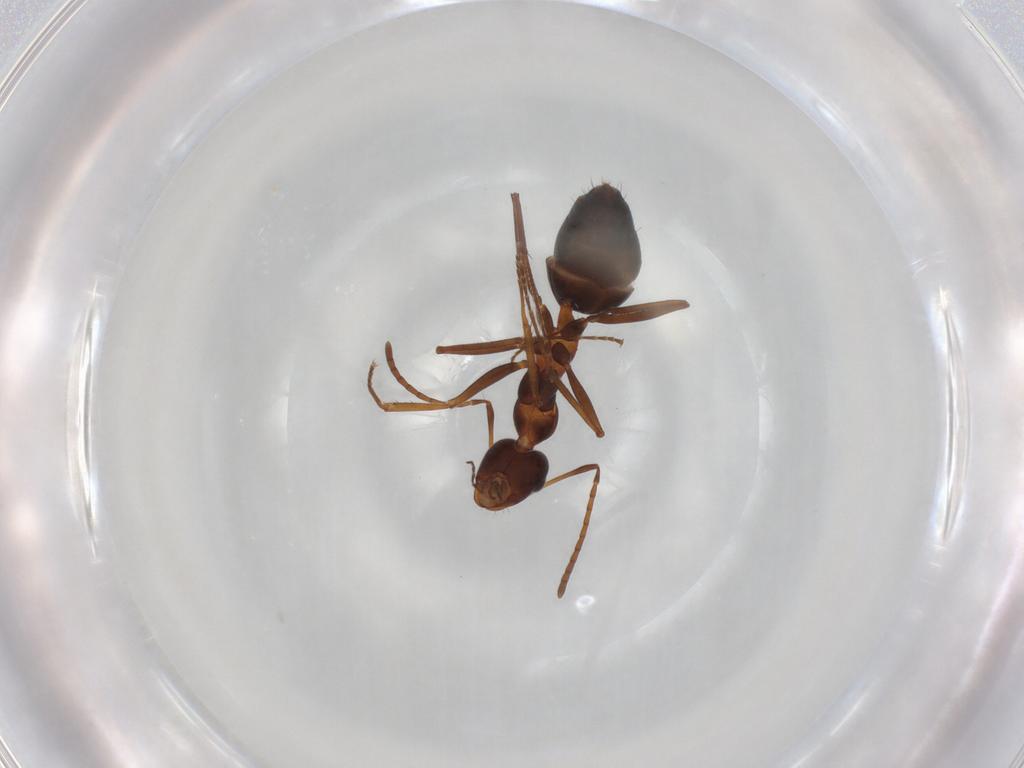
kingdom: Animalia
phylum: Arthropoda
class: Insecta
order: Hymenoptera
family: Formicidae
